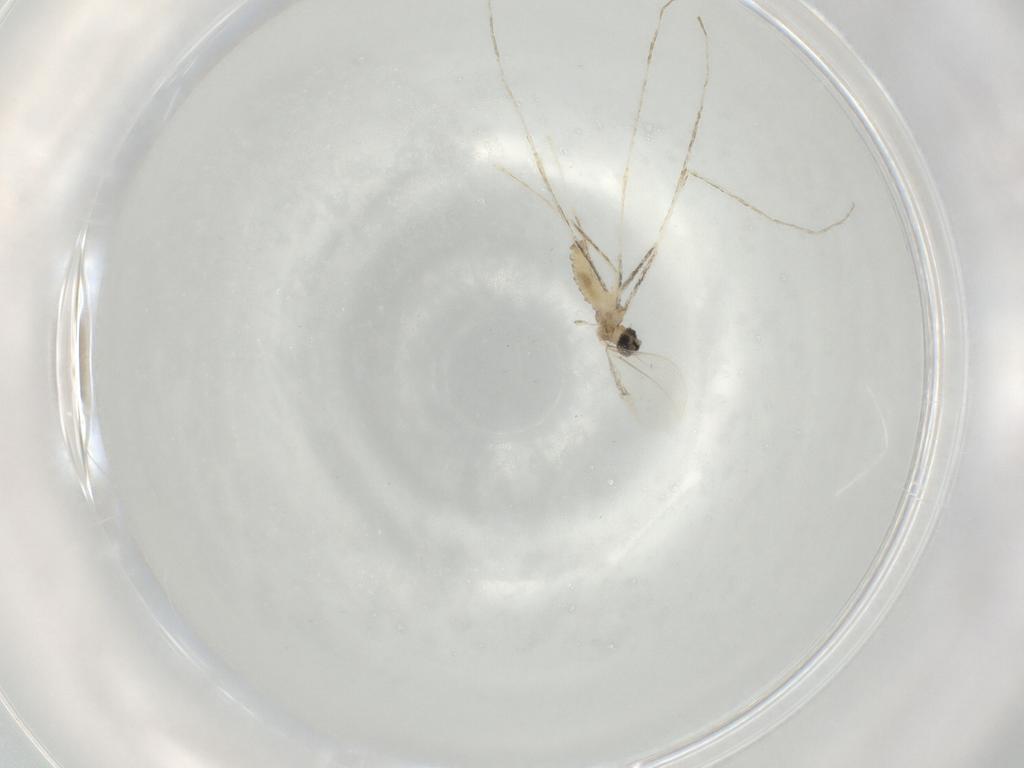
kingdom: Animalia
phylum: Arthropoda
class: Insecta
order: Diptera
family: Cecidomyiidae
